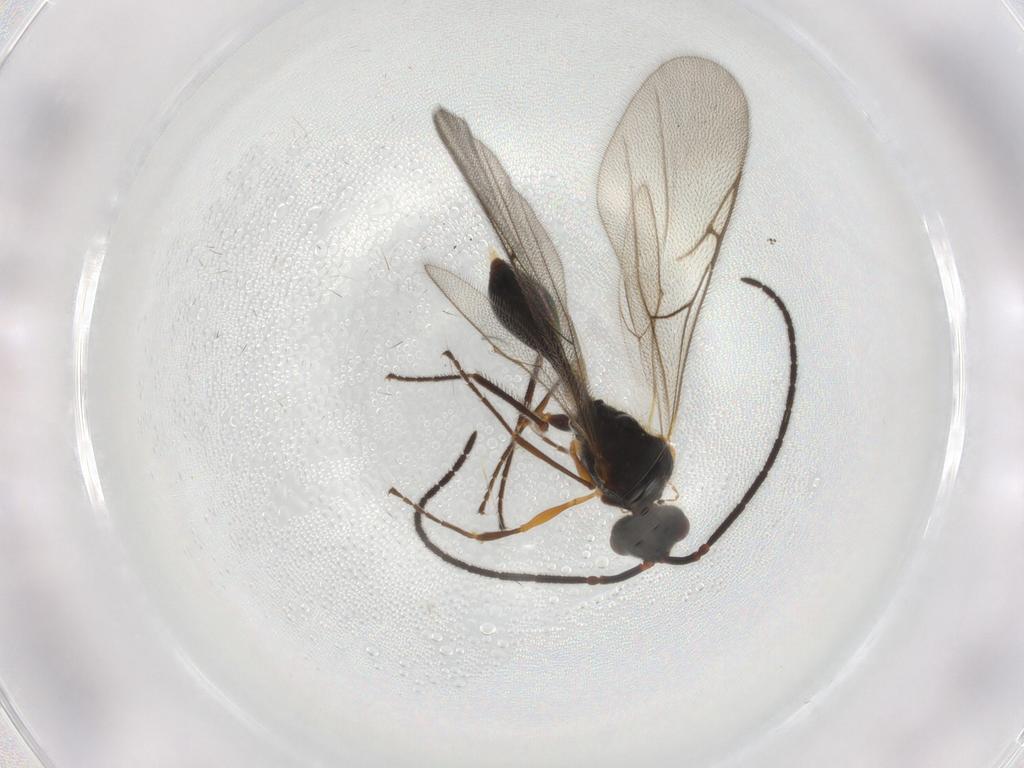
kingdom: Animalia
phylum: Arthropoda
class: Insecta
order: Hymenoptera
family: Diapriidae
